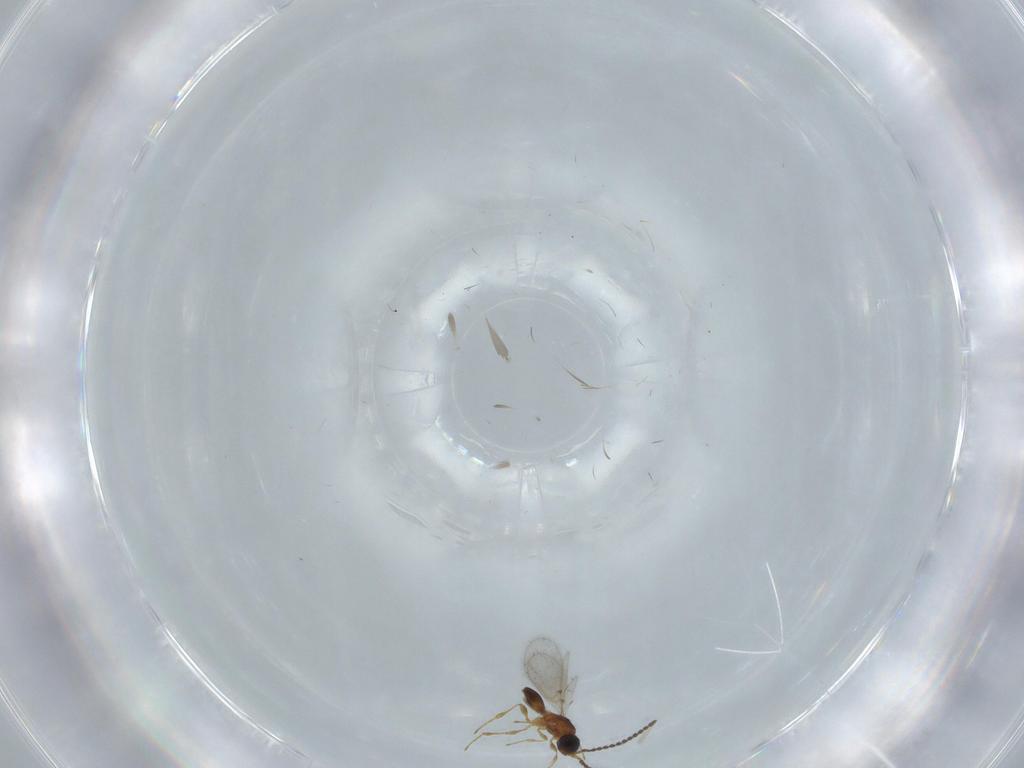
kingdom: Animalia
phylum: Arthropoda
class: Insecta
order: Hymenoptera
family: Diapriidae
